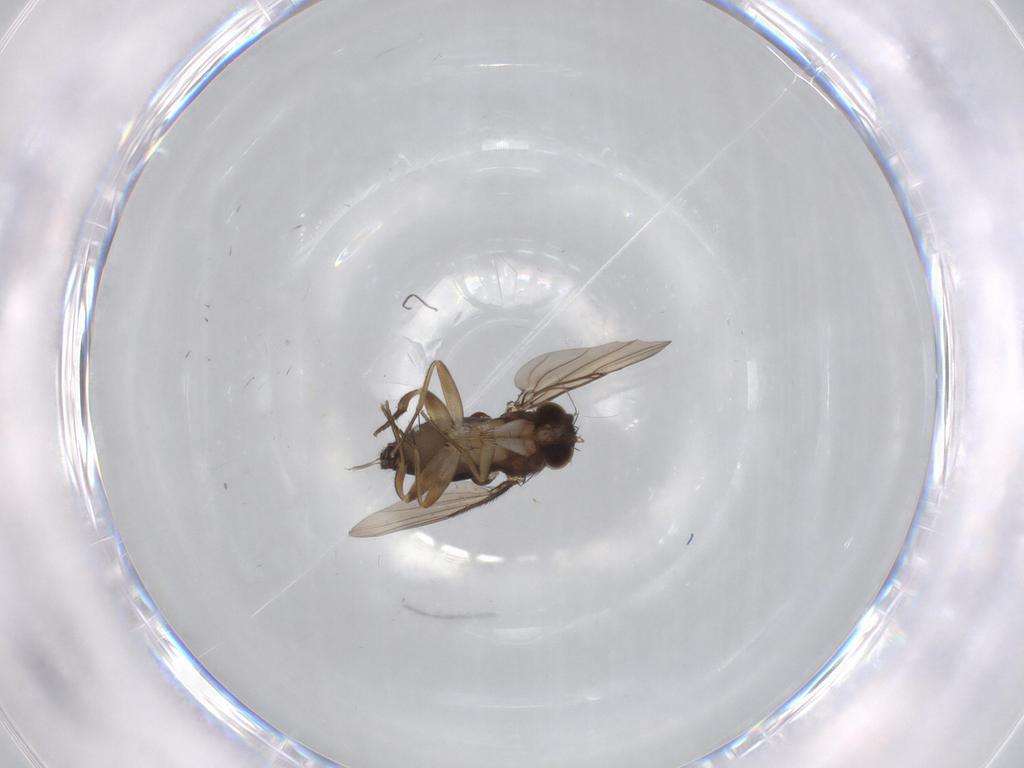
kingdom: Animalia
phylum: Arthropoda
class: Insecta
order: Diptera
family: Phoridae
